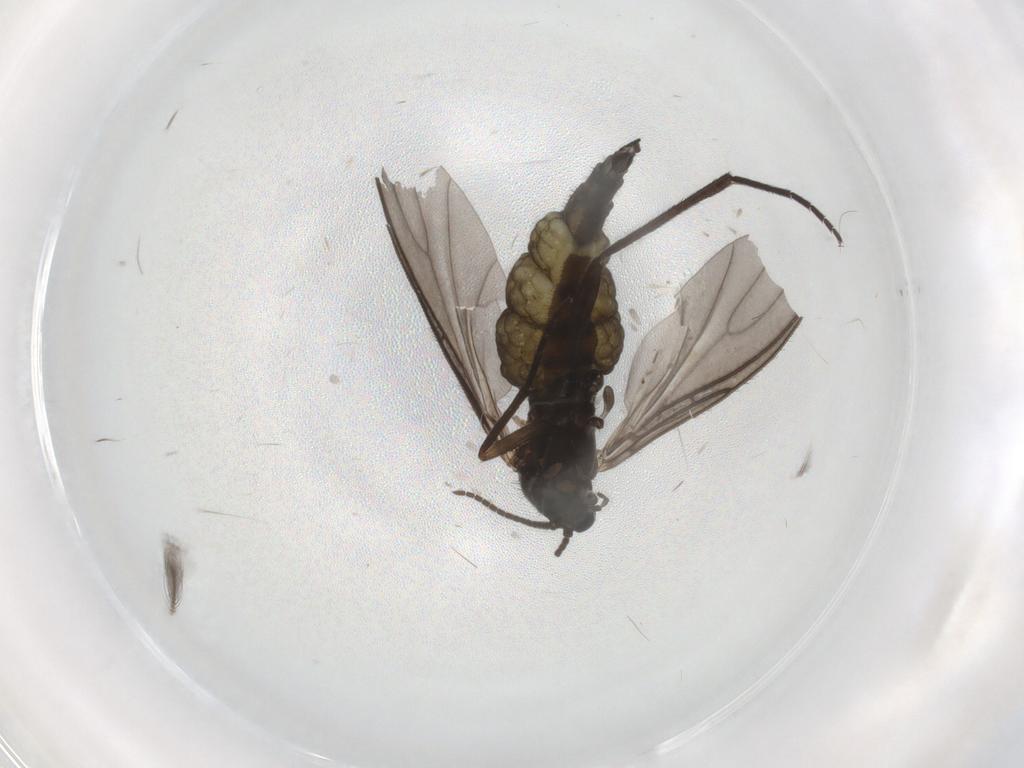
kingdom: Animalia
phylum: Arthropoda
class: Insecta
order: Diptera
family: Sciaridae
